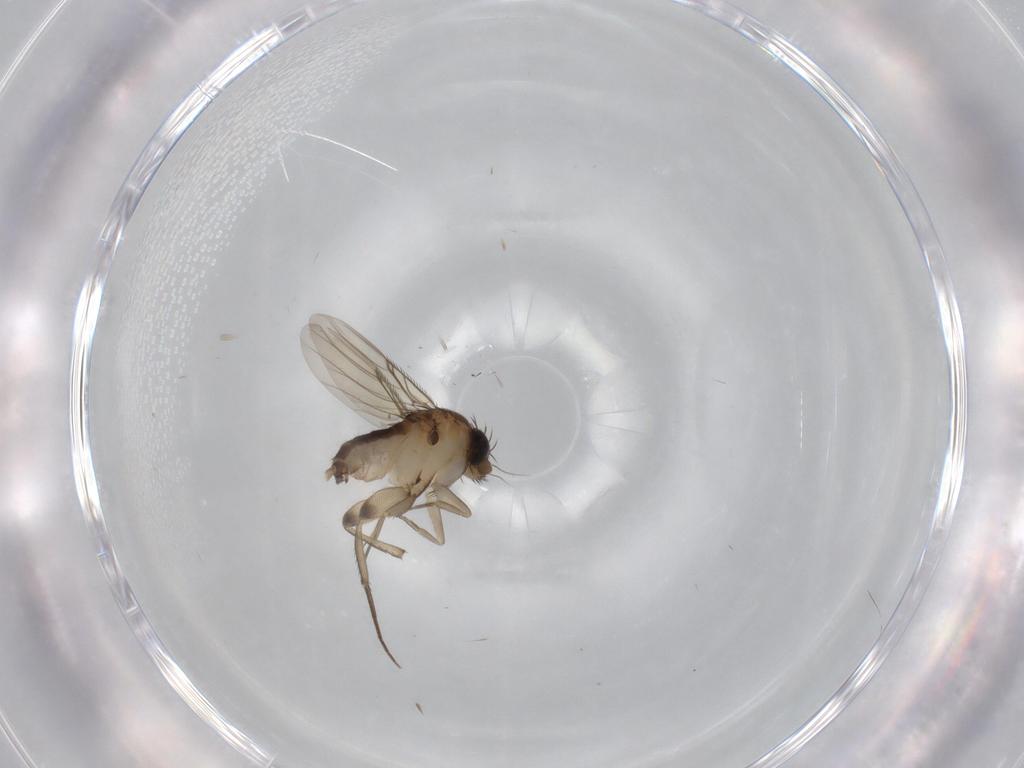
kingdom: Animalia
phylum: Arthropoda
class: Insecta
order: Diptera
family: Phoridae
